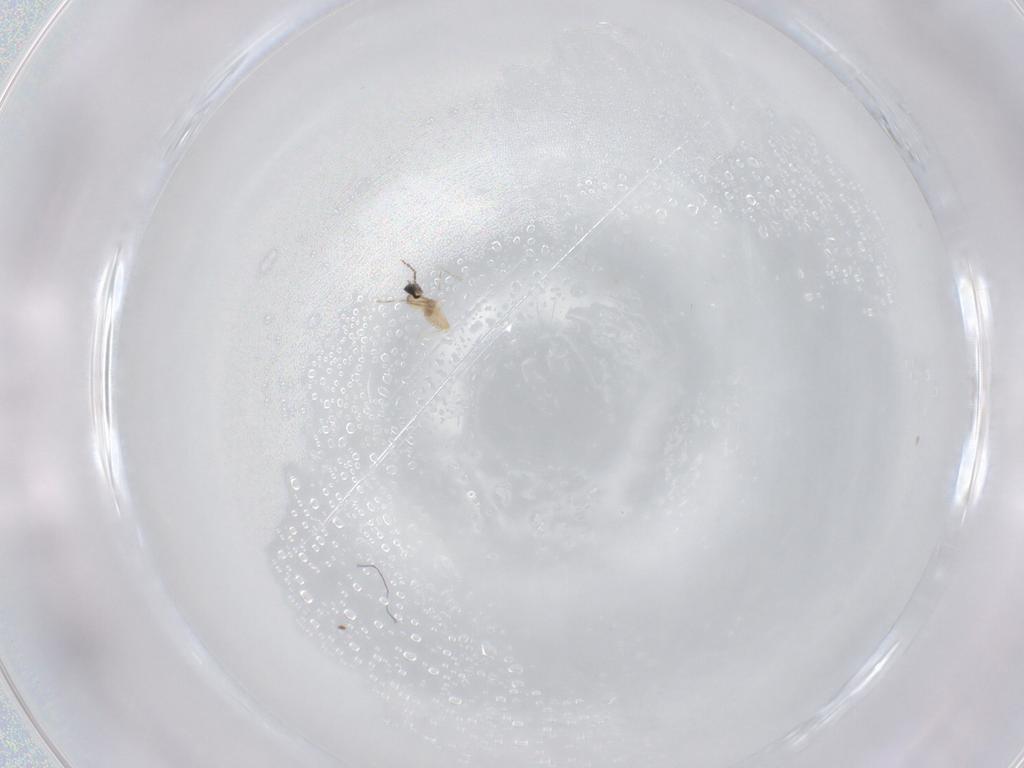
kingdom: Animalia
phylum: Arthropoda
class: Insecta
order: Diptera
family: Cecidomyiidae
